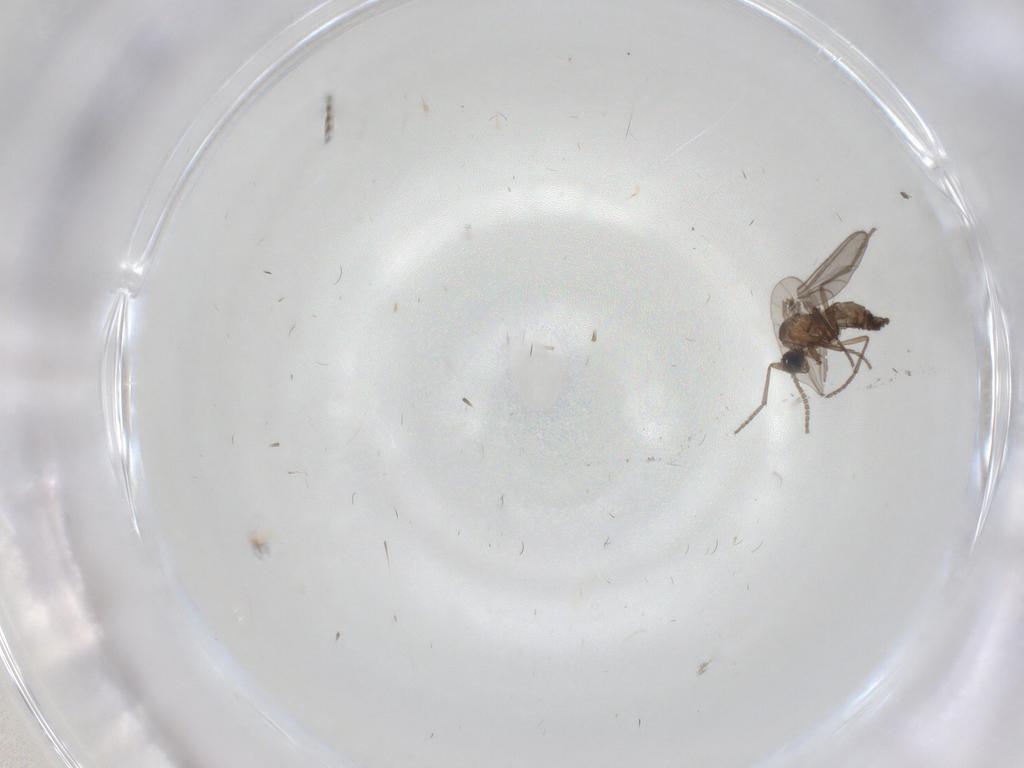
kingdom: Animalia
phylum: Arthropoda
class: Insecta
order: Diptera
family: Sciaridae
